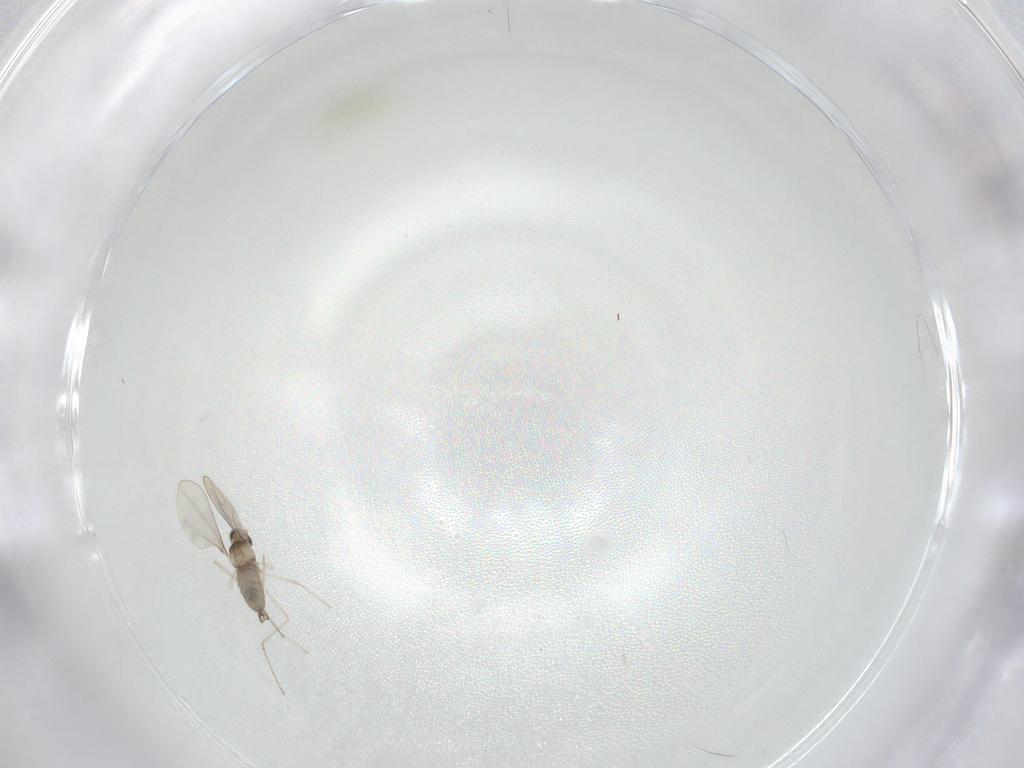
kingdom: Animalia
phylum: Arthropoda
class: Insecta
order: Diptera
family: Cecidomyiidae
